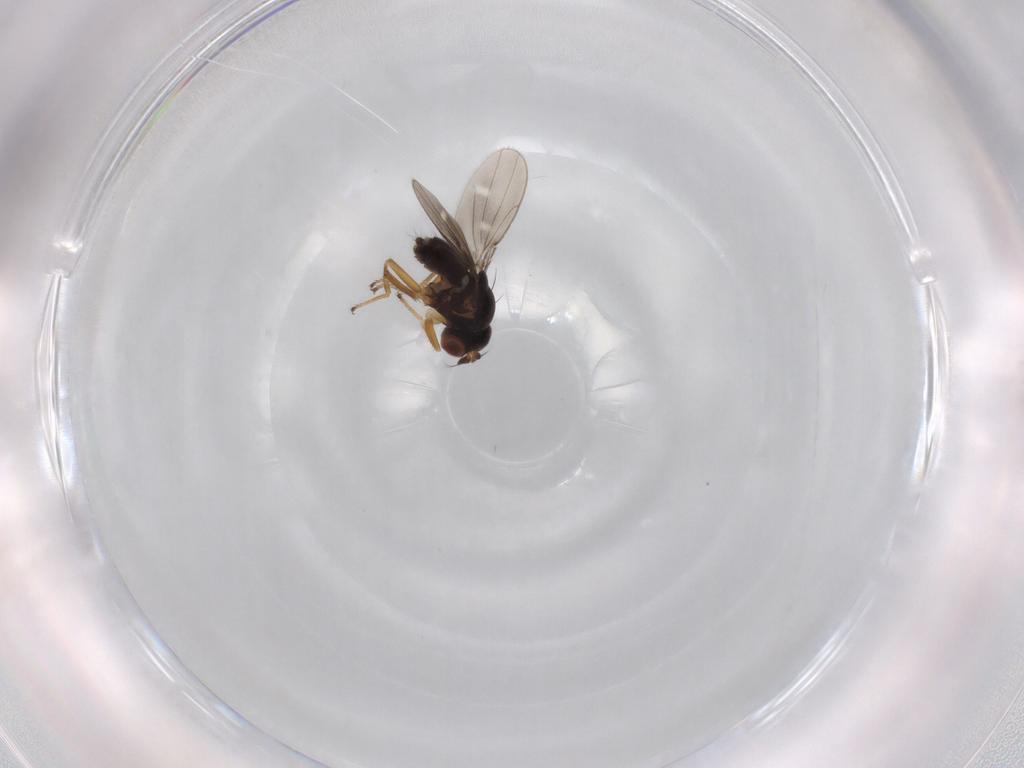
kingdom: Animalia
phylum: Arthropoda
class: Insecta
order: Diptera
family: Ephydridae
